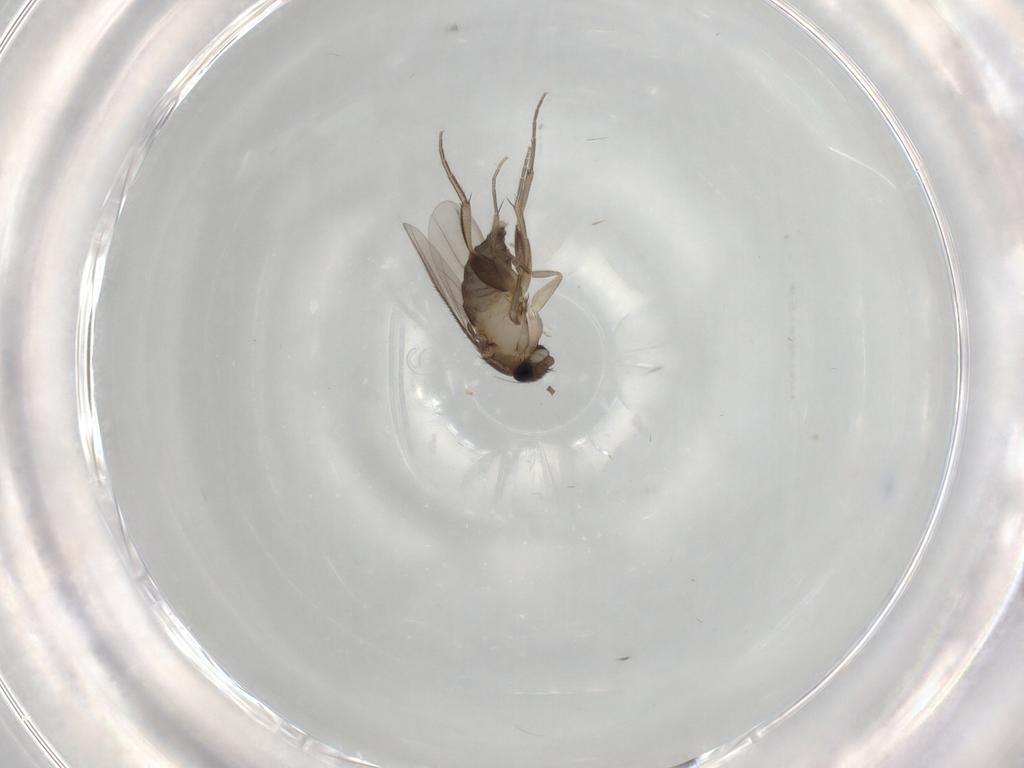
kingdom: Animalia
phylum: Arthropoda
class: Insecta
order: Diptera
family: Phoridae
